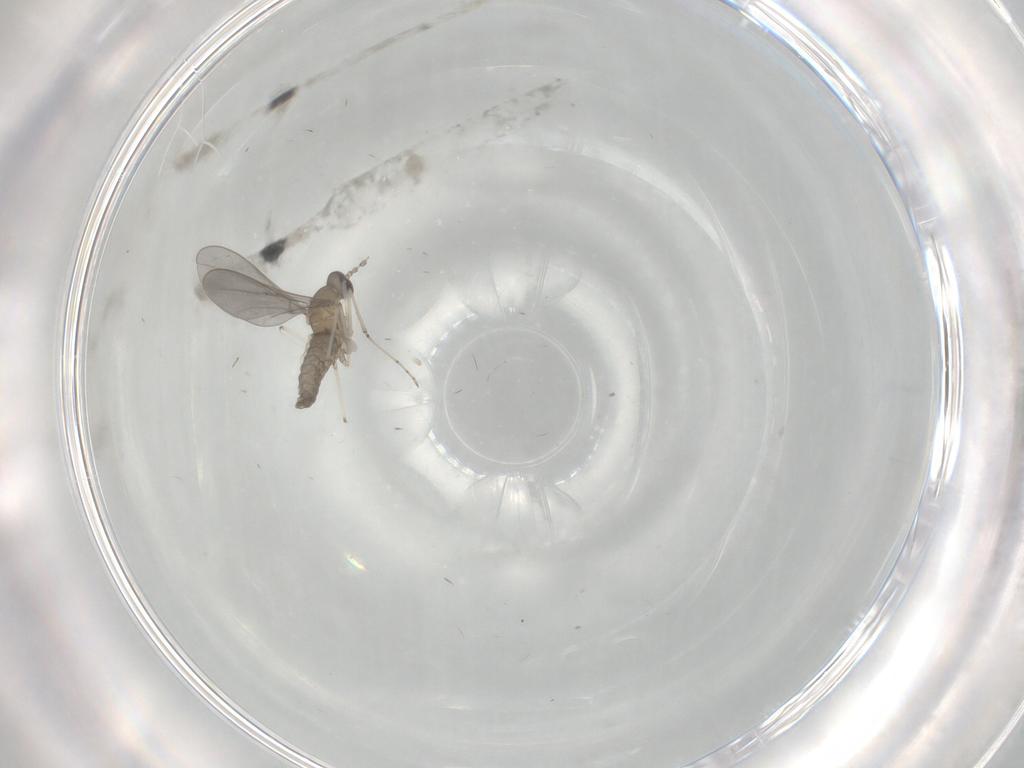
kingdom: Animalia
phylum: Arthropoda
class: Insecta
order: Diptera
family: Cecidomyiidae
